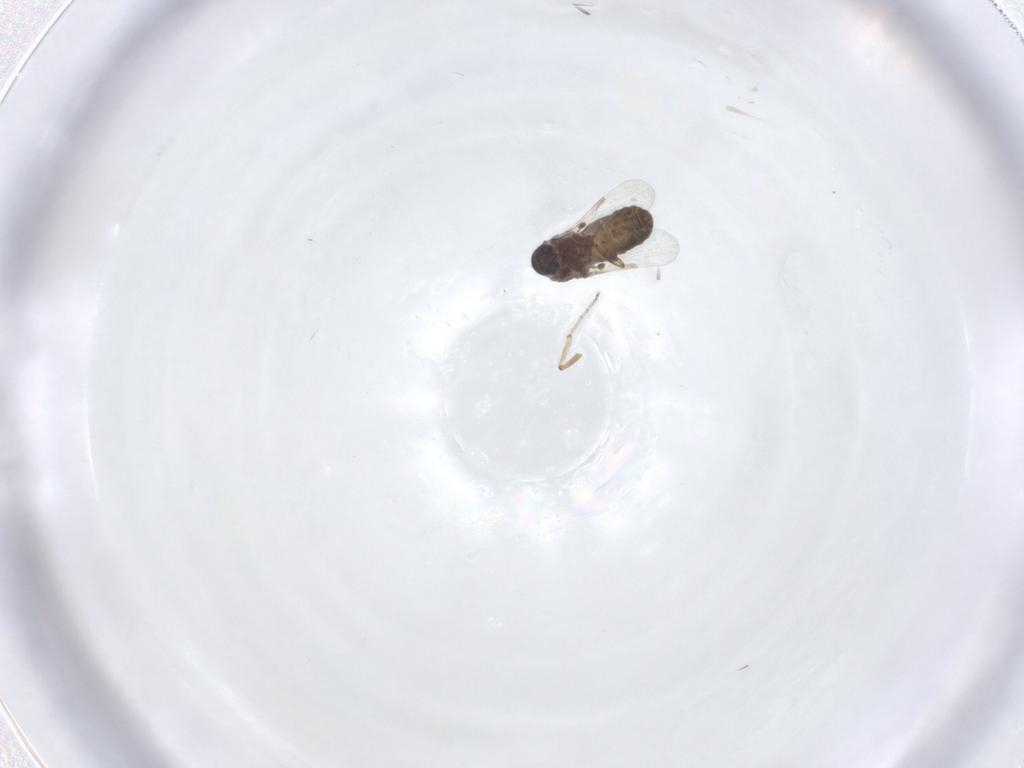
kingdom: Animalia
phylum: Arthropoda
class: Insecta
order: Diptera
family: Ceratopogonidae
